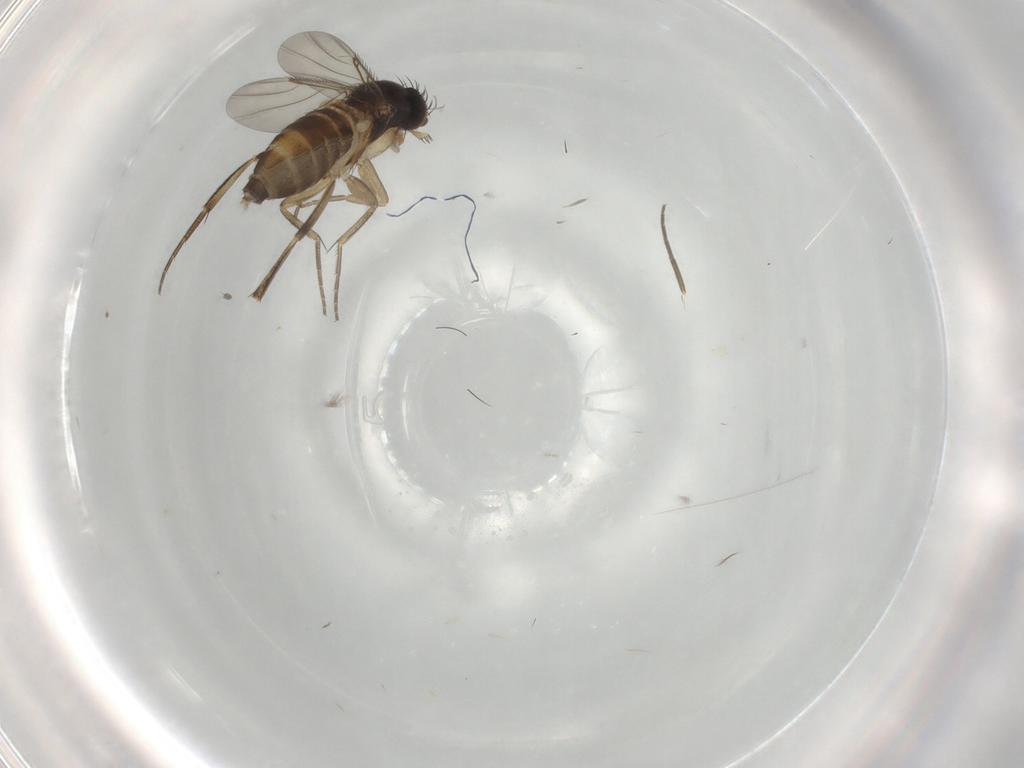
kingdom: Animalia
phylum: Arthropoda
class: Insecta
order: Diptera
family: Phoridae
